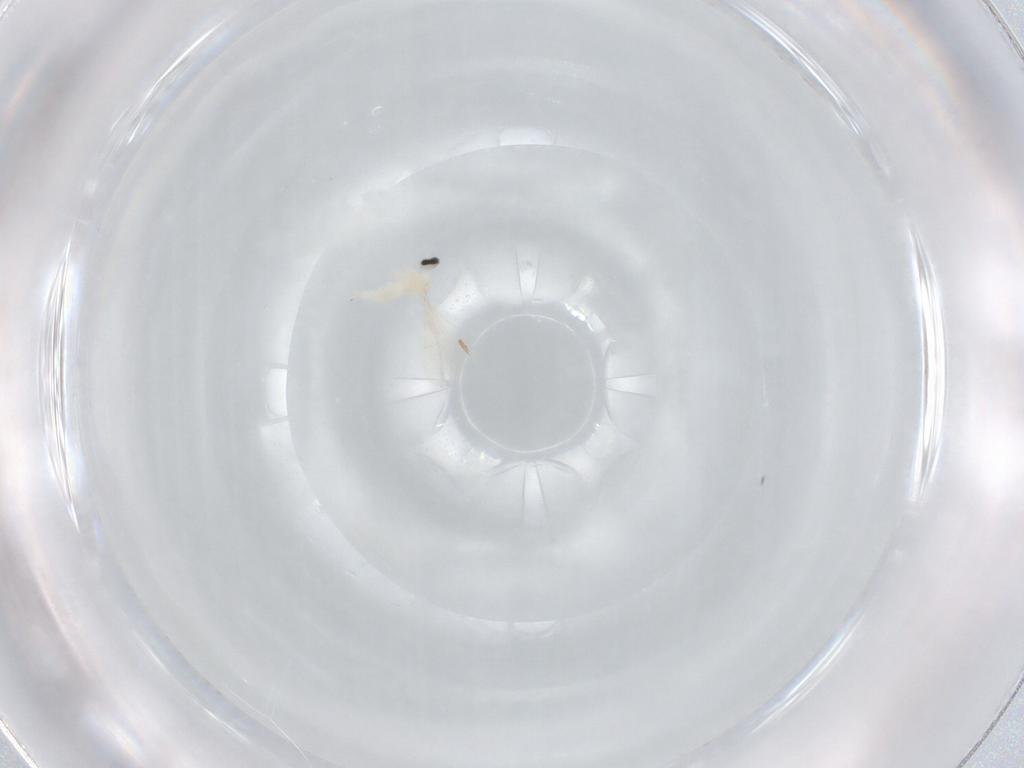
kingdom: Animalia
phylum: Arthropoda
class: Insecta
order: Diptera
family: Cecidomyiidae
